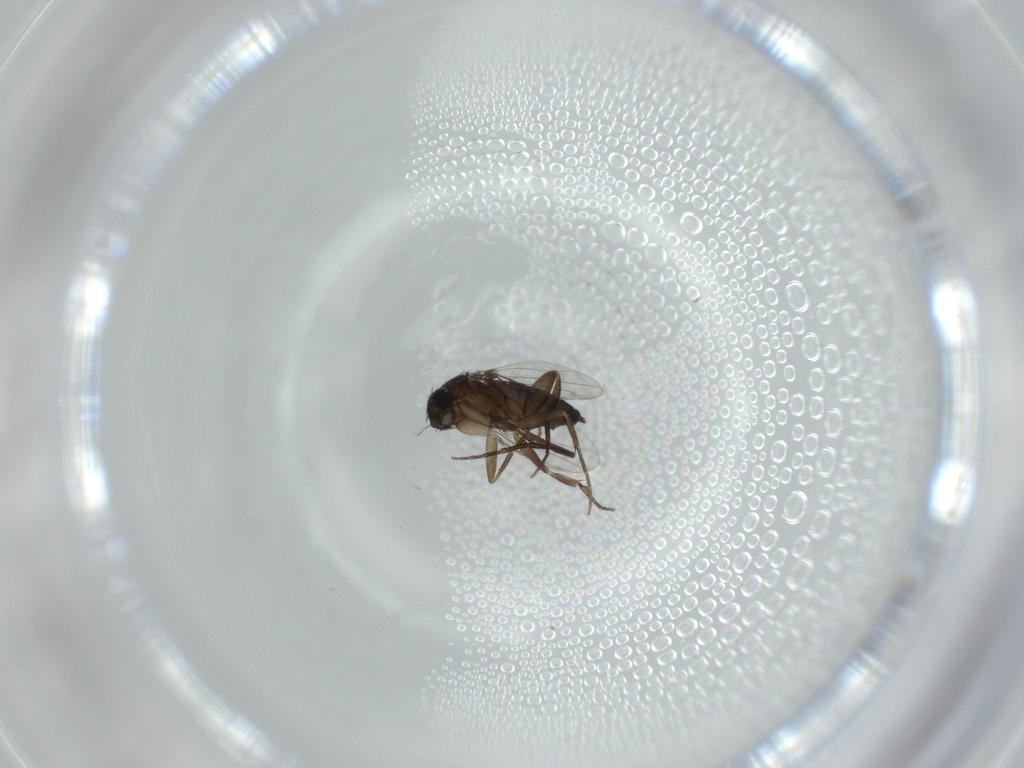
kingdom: Animalia
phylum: Arthropoda
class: Insecta
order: Diptera
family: Phoridae
